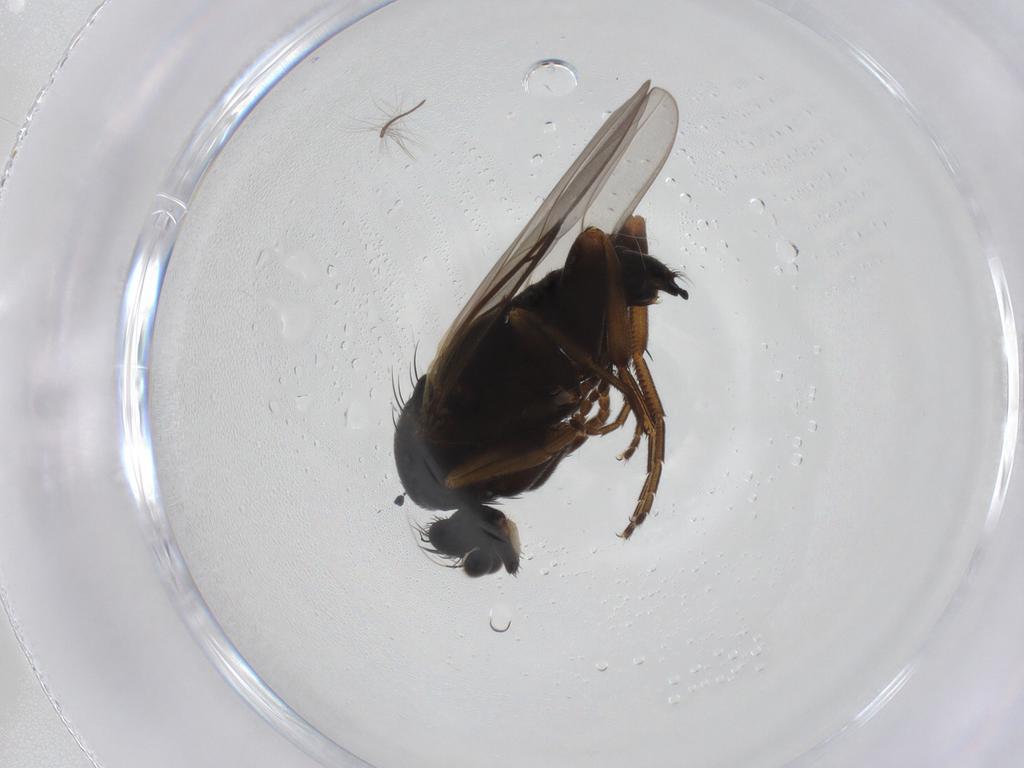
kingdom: Animalia
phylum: Arthropoda
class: Insecta
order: Diptera
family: Phoridae
